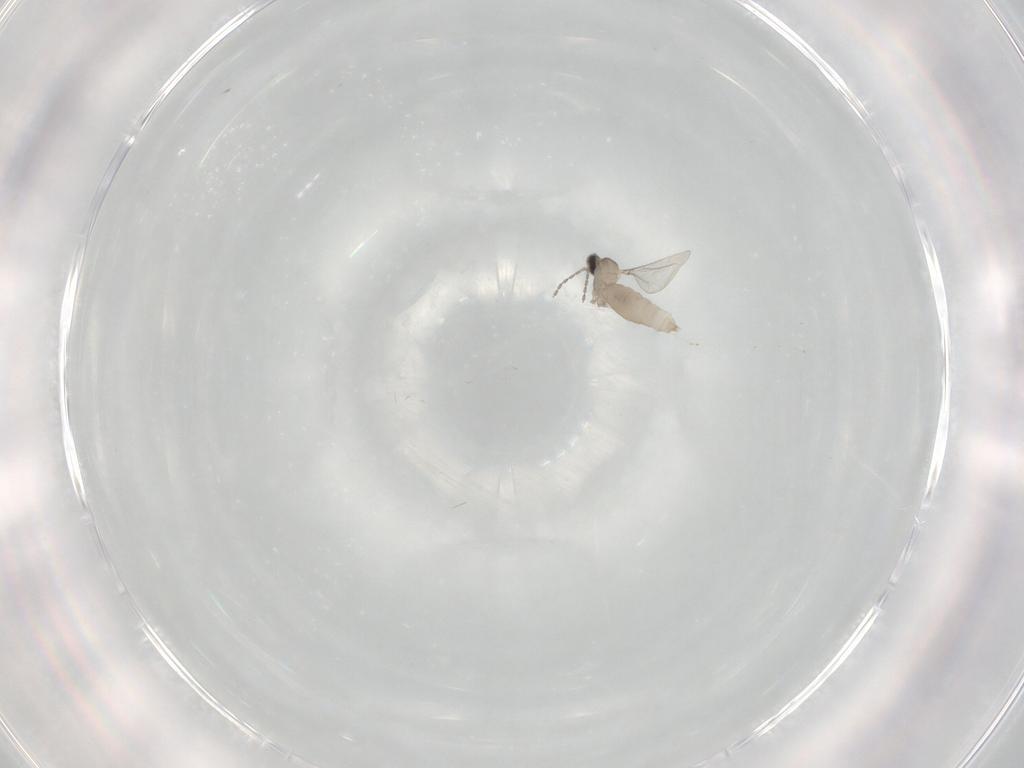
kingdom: Animalia
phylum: Arthropoda
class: Insecta
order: Diptera
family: Cecidomyiidae
